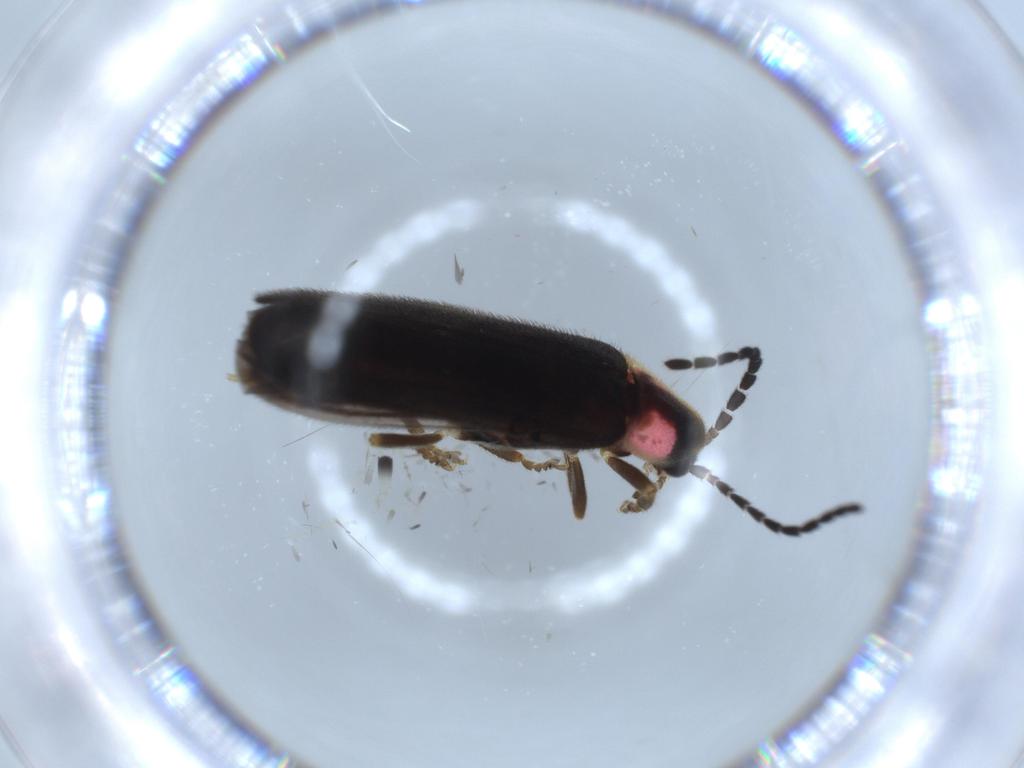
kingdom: Animalia
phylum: Arthropoda
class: Insecta
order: Coleoptera
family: Lampyridae
